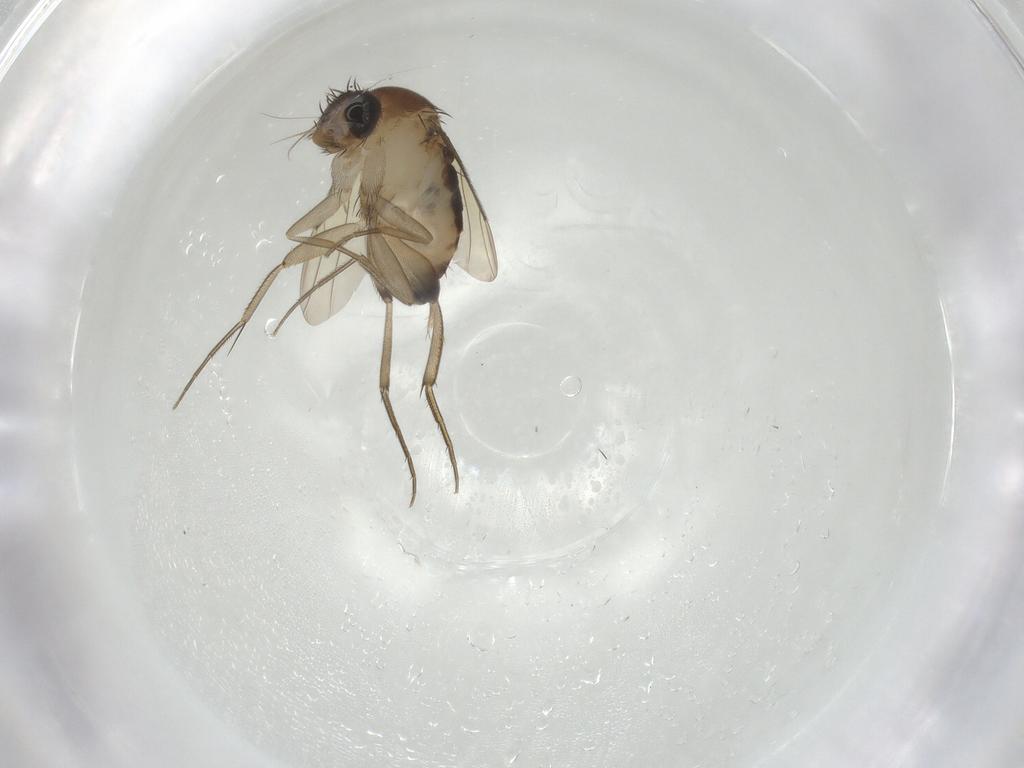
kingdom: Animalia
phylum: Arthropoda
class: Insecta
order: Diptera
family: Phoridae
